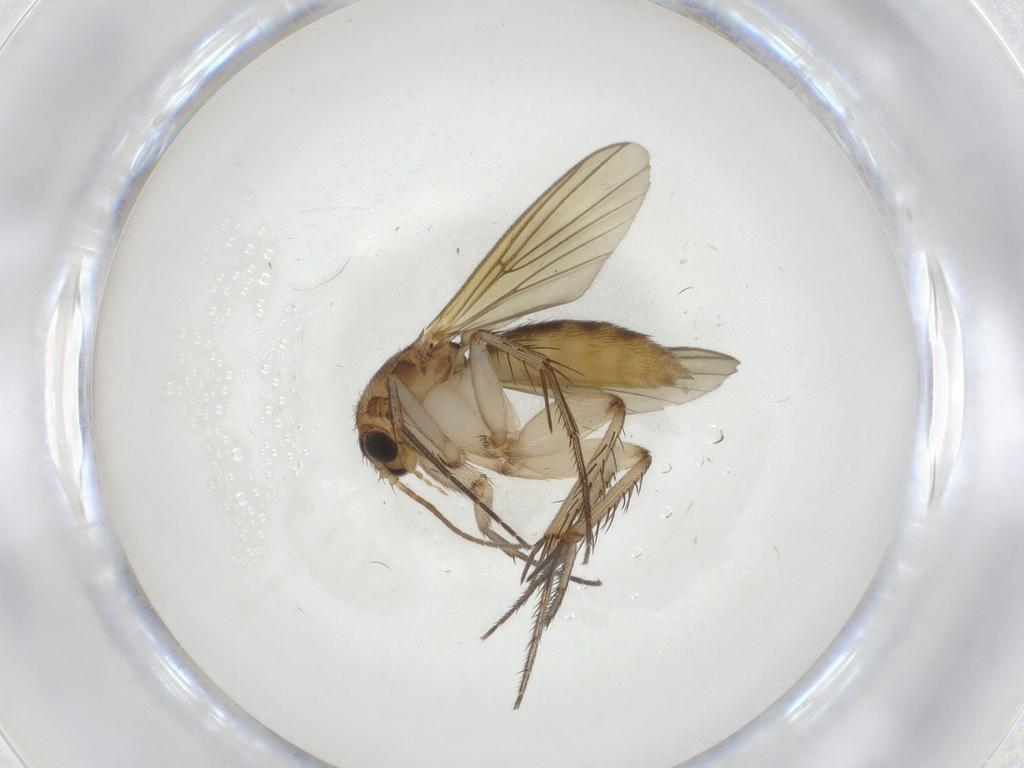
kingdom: Animalia
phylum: Arthropoda
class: Insecta
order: Diptera
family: Mycetophilidae
